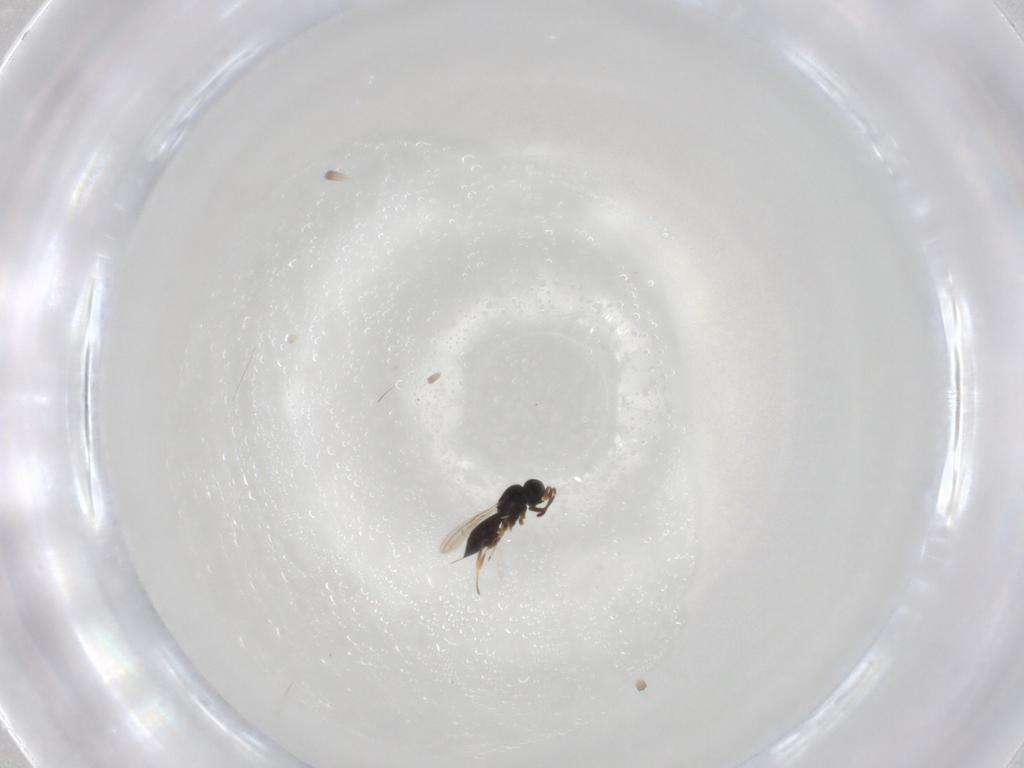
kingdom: Animalia
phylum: Arthropoda
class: Insecta
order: Hymenoptera
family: Scelionidae
